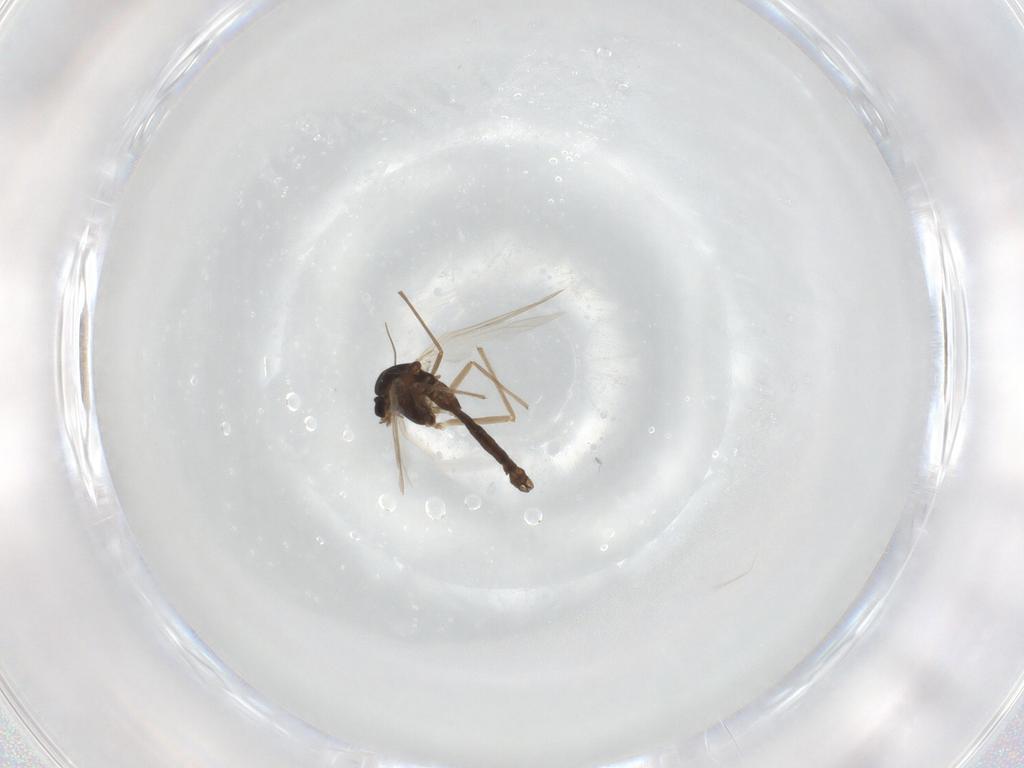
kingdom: Animalia
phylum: Arthropoda
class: Insecta
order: Diptera
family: Chironomidae
